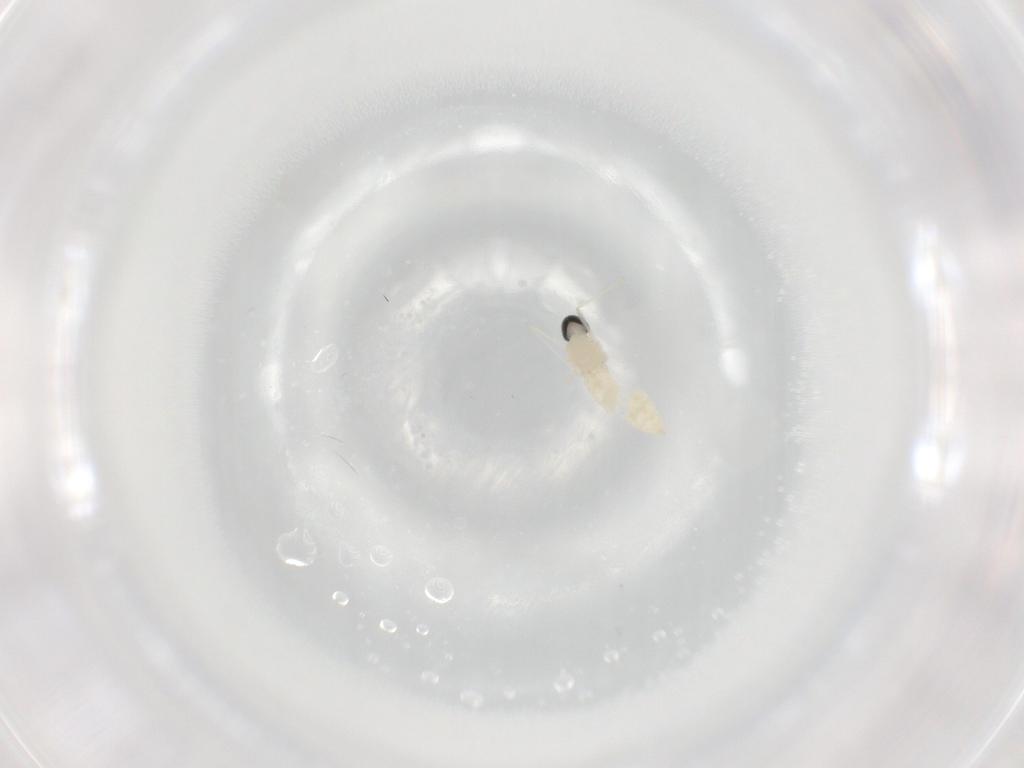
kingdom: Animalia
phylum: Arthropoda
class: Insecta
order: Diptera
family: Cecidomyiidae
